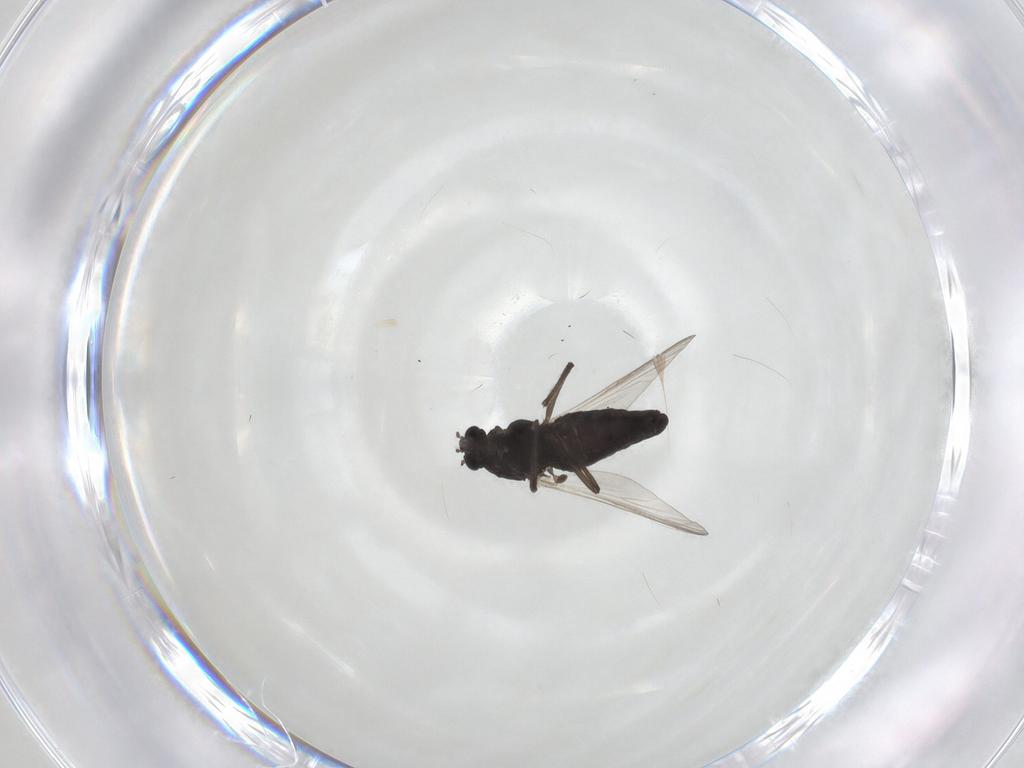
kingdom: Animalia
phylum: Arthropoda
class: Insecta
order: Diptera
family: Chironomidae
